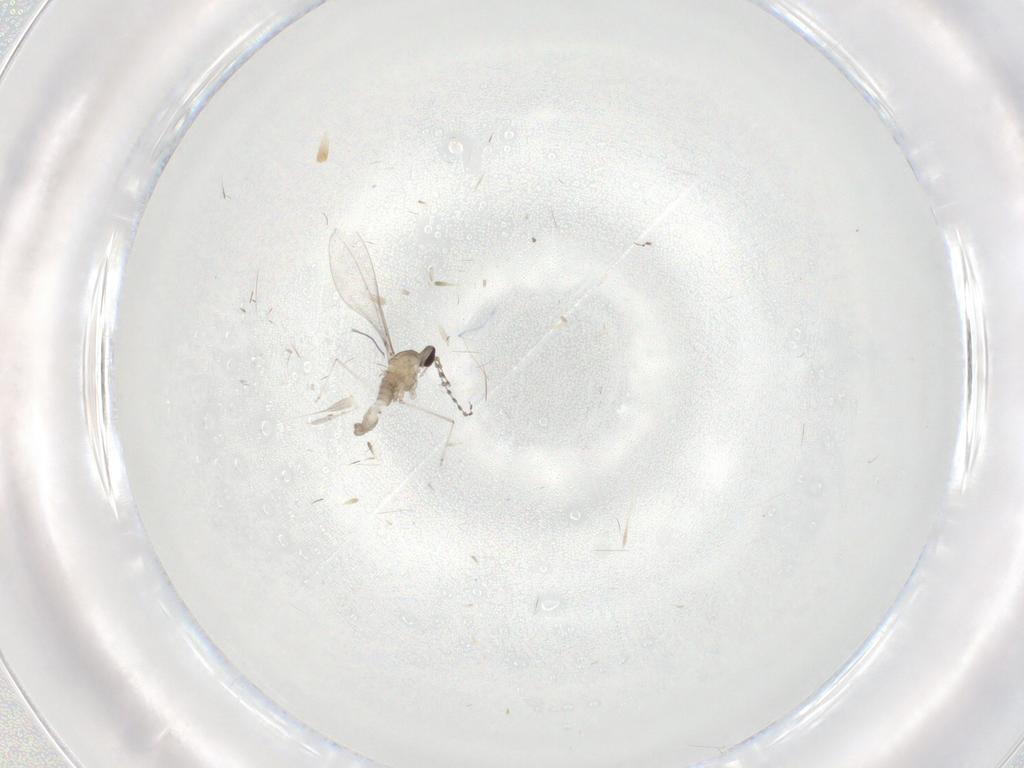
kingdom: Animalia
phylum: Arthropoda
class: Insecta
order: Diptera
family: Cecidomyiidae
